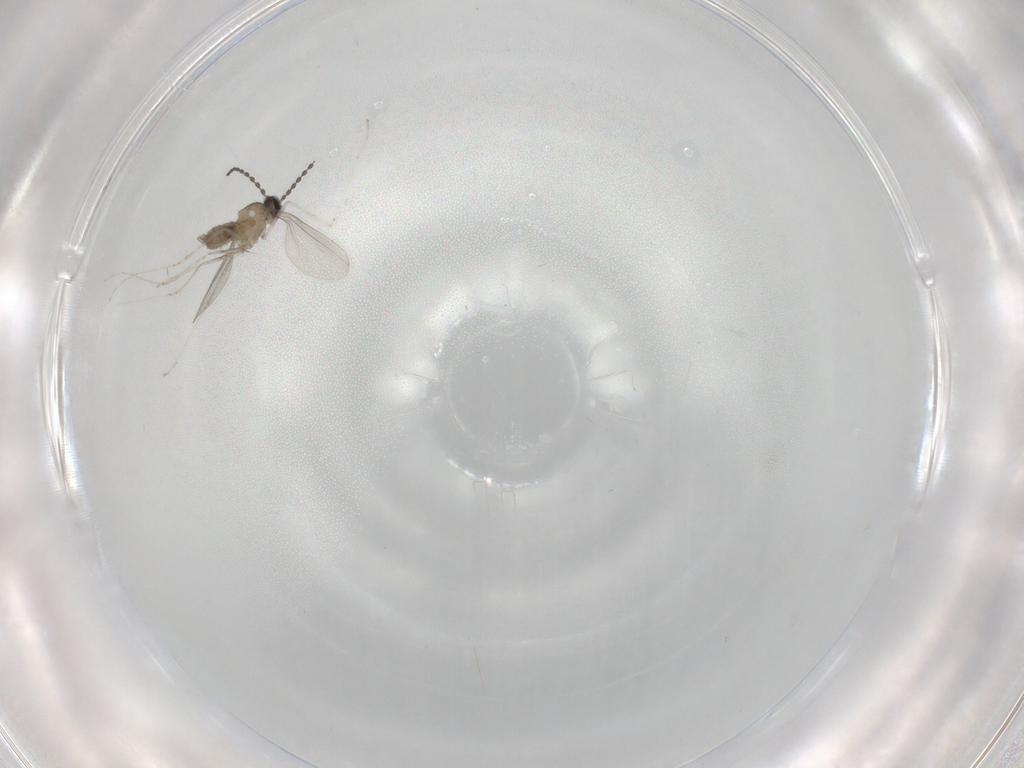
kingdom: Animalia
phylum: Arthropoda
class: Insecta
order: Diptera
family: Cecidomyiidae
